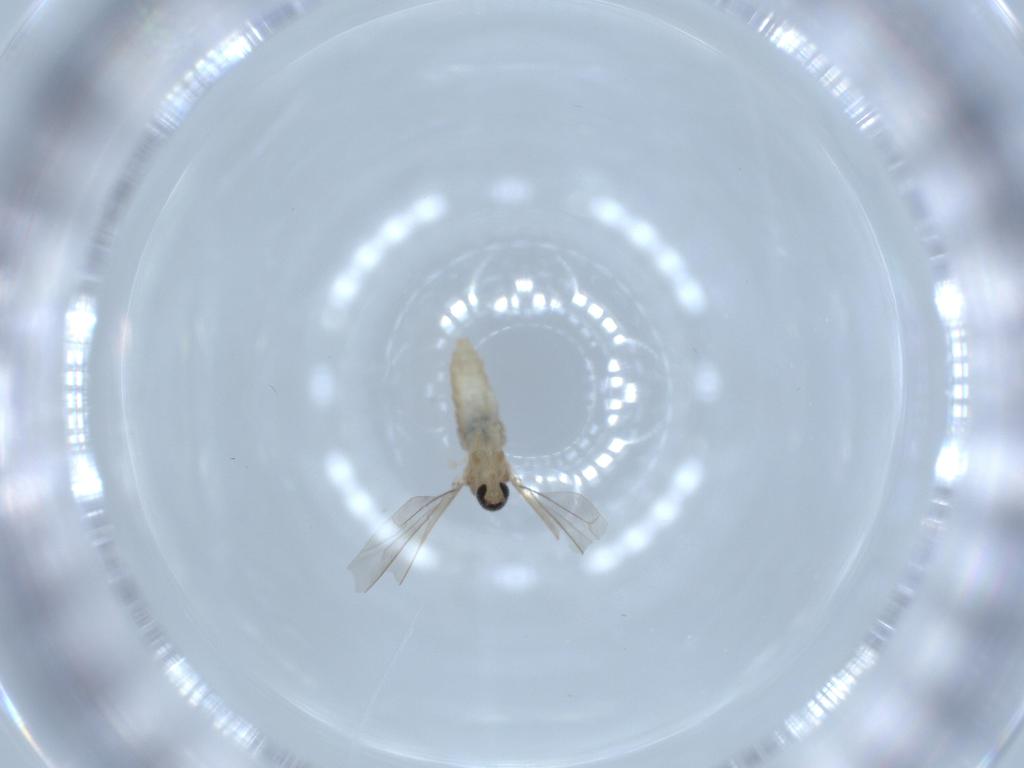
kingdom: Animalia
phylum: Arthropoda
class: Insecta
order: Diptera
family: Cecidomyiidae
